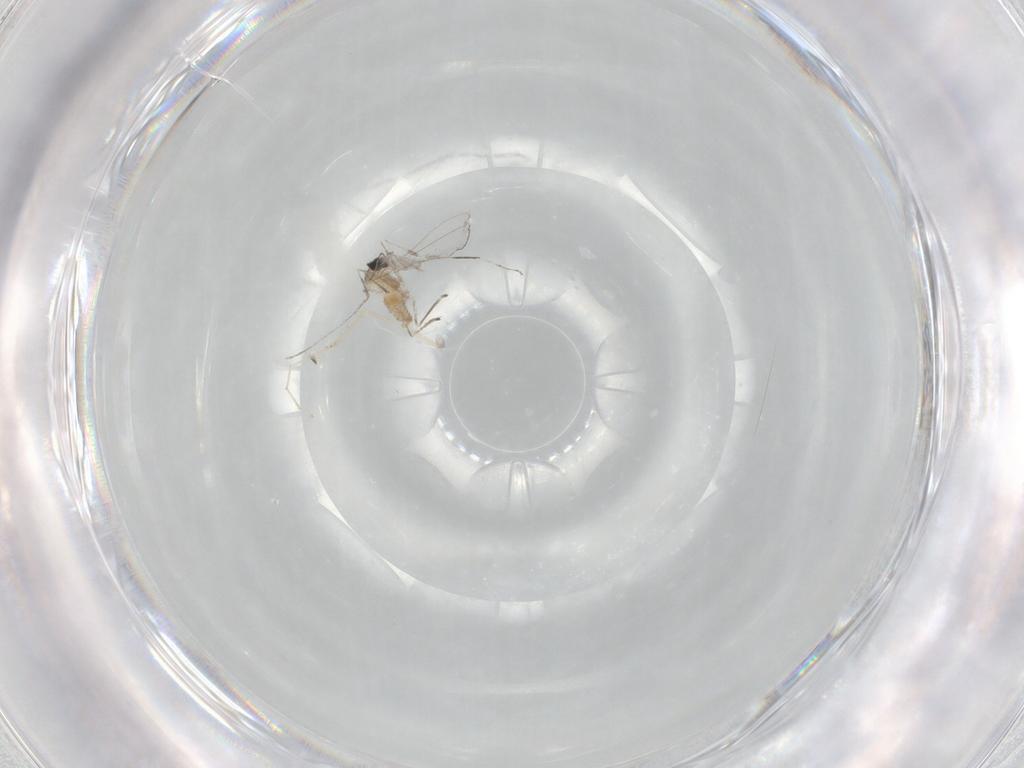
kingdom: Animalia
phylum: Arthropoda
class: Insecta
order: Diptera
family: Cecidomyiidae
